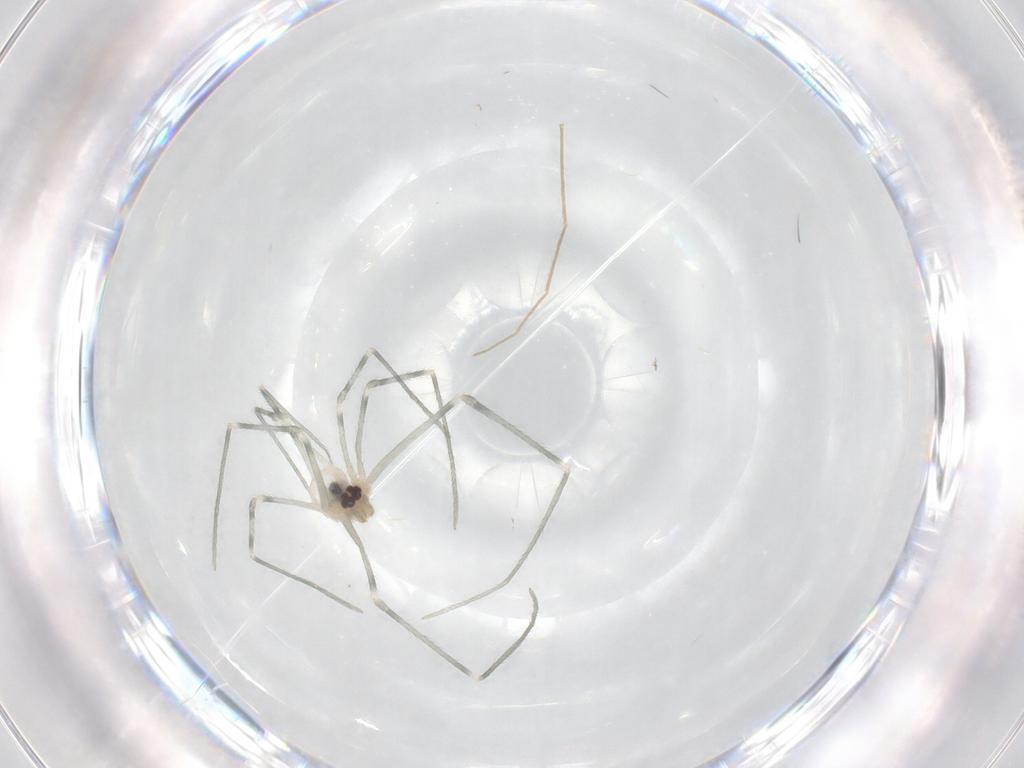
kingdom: Animalia
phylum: Arthropoda
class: Arachnida
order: Araneae
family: Pholcidae
